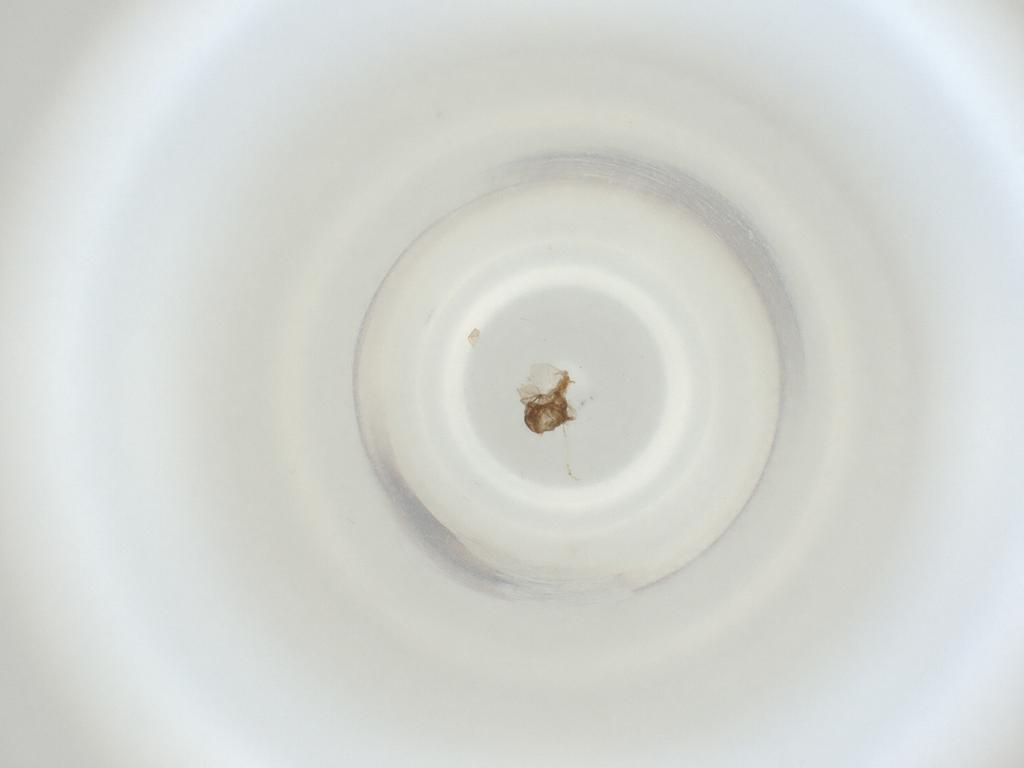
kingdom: Animalia
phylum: Arthropoda
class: Insecta
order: Diptera
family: Cecidomyiidae
